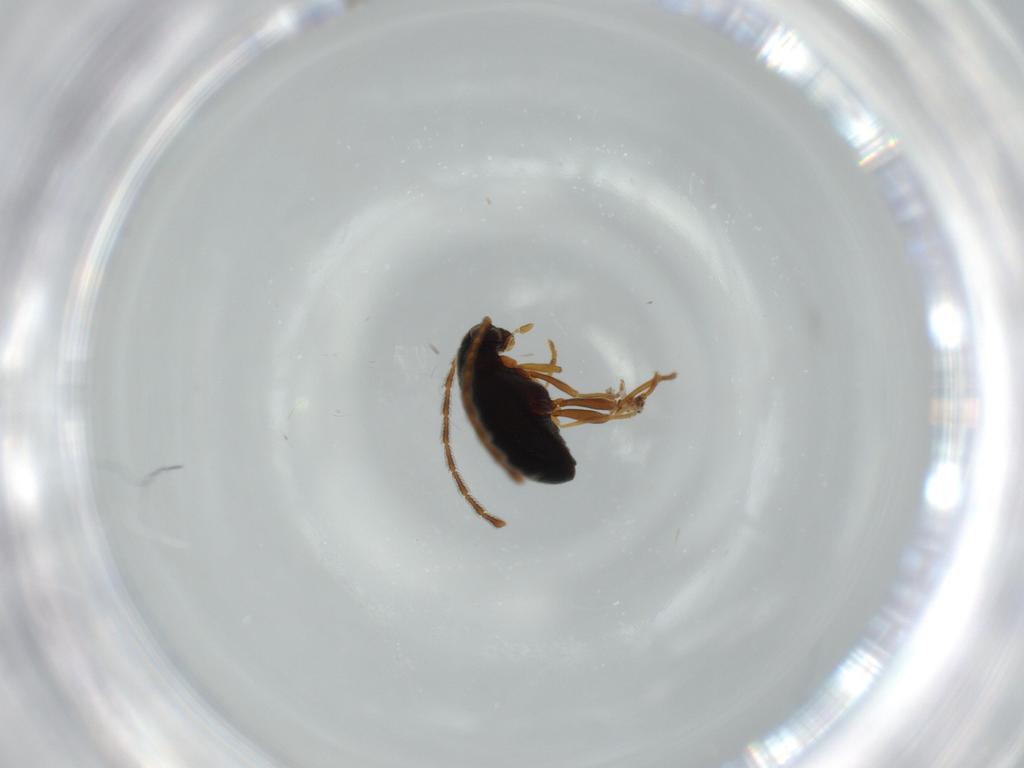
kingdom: Animalia
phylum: Arthropoda
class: Insecta
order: Coleoptera
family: Aderidae
